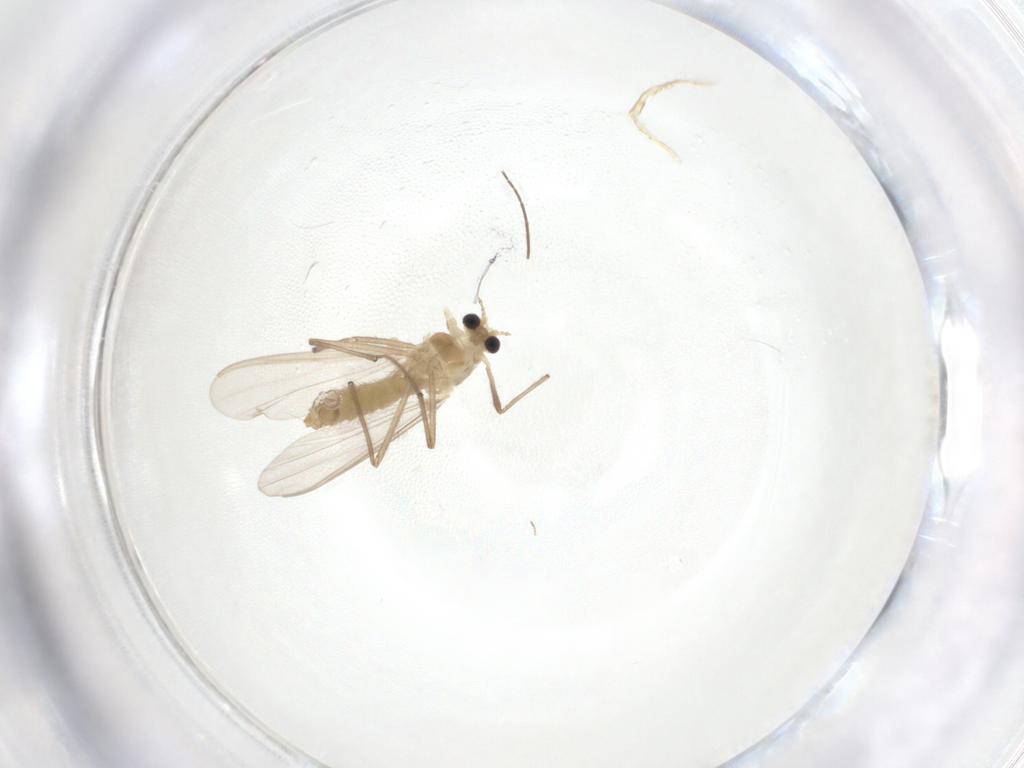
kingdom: Animalia
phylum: Arthropoda
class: Insecta
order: Diptera
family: Chironomidae
